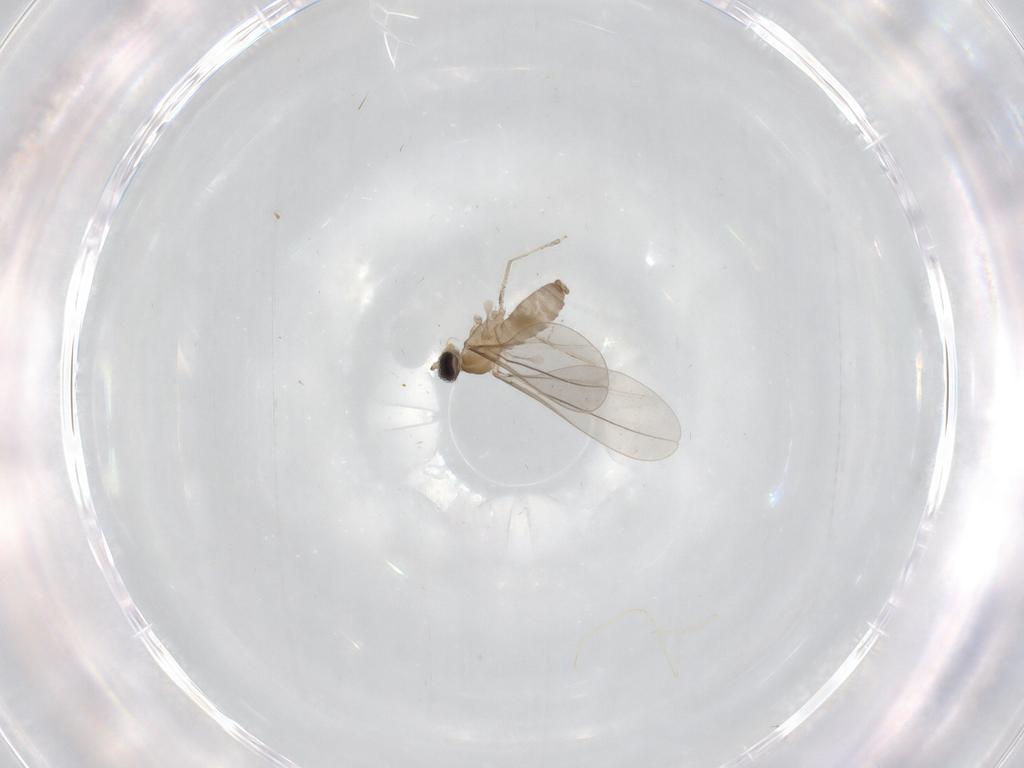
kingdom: Animalia
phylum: Arthropoda
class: Insecta
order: Diptera
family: Cecidomyiidae
